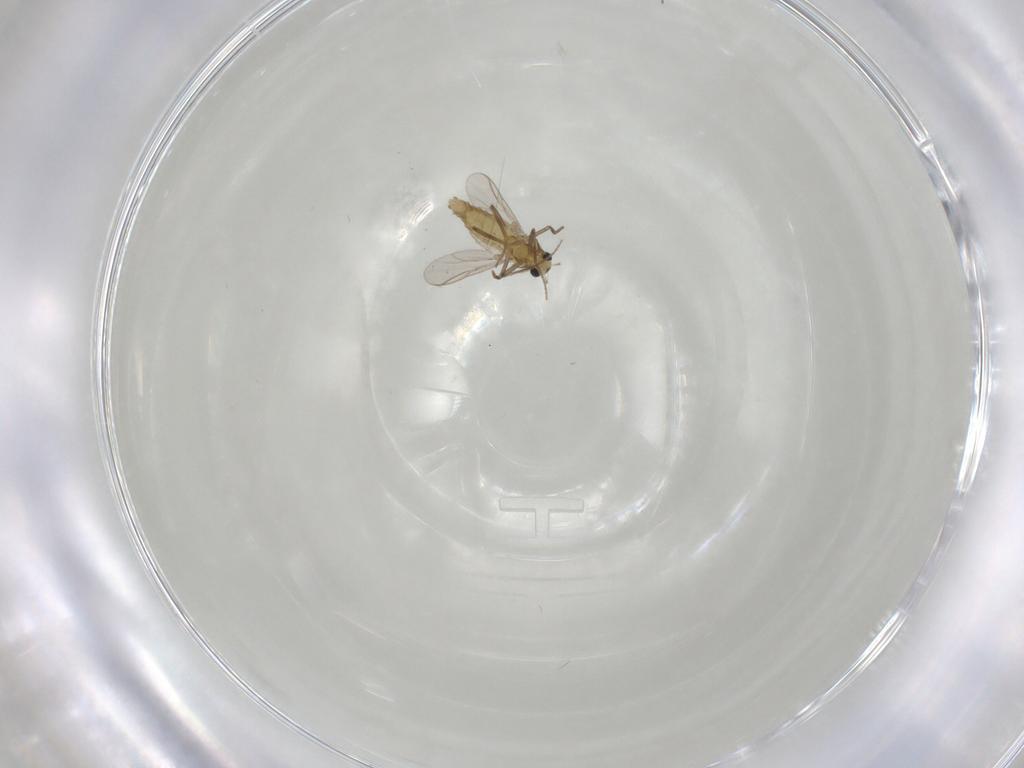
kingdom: Animalia
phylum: Arthropoda
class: Insecta
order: Diptera
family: Chironomidae
